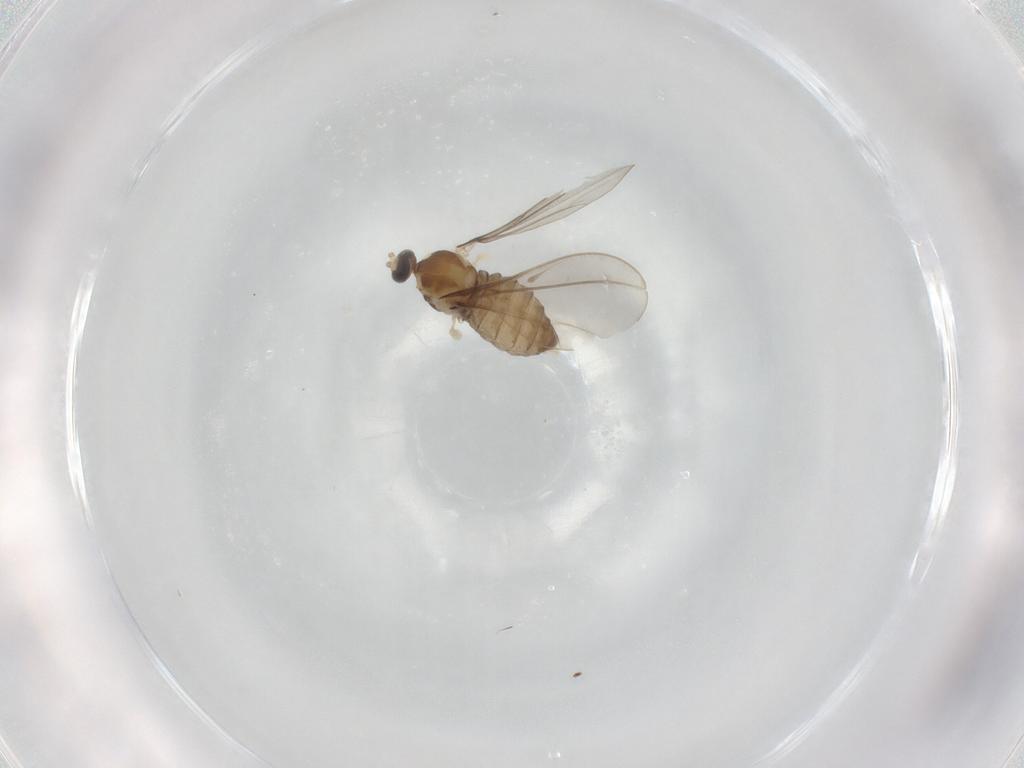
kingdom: Animalia
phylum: Arthropoda
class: Insecta
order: Diptera
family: Cecidomyiidae
